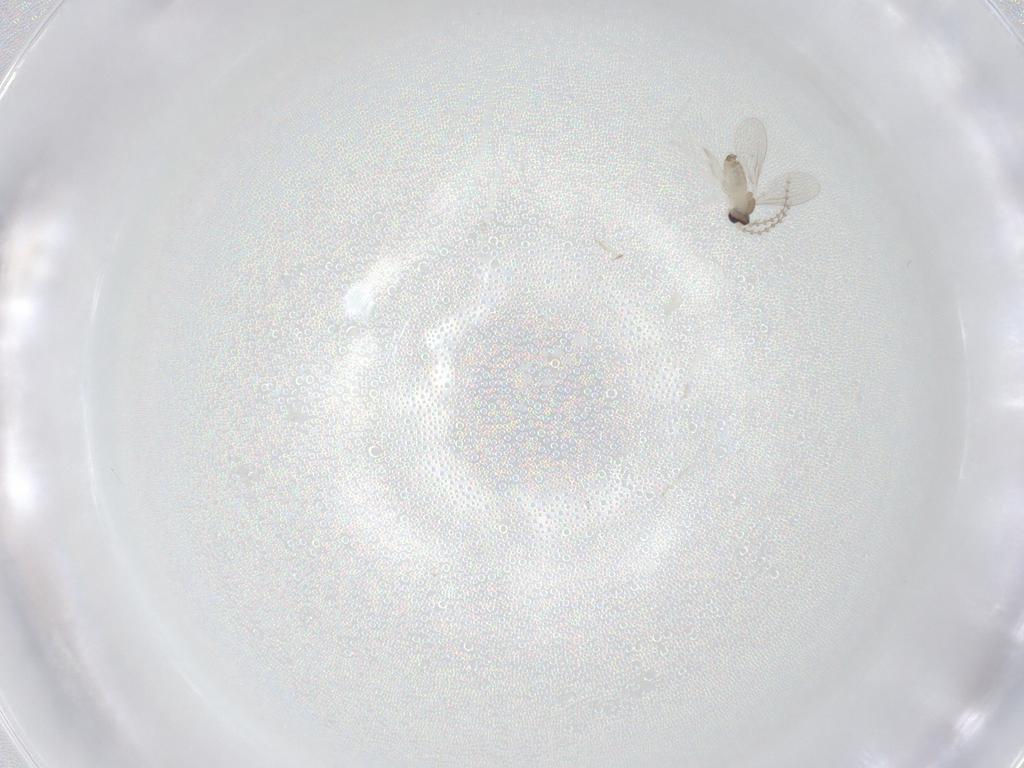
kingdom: Animalia
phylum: Arthropoda
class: Insecta
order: Diptera
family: Cecidomyiidae
